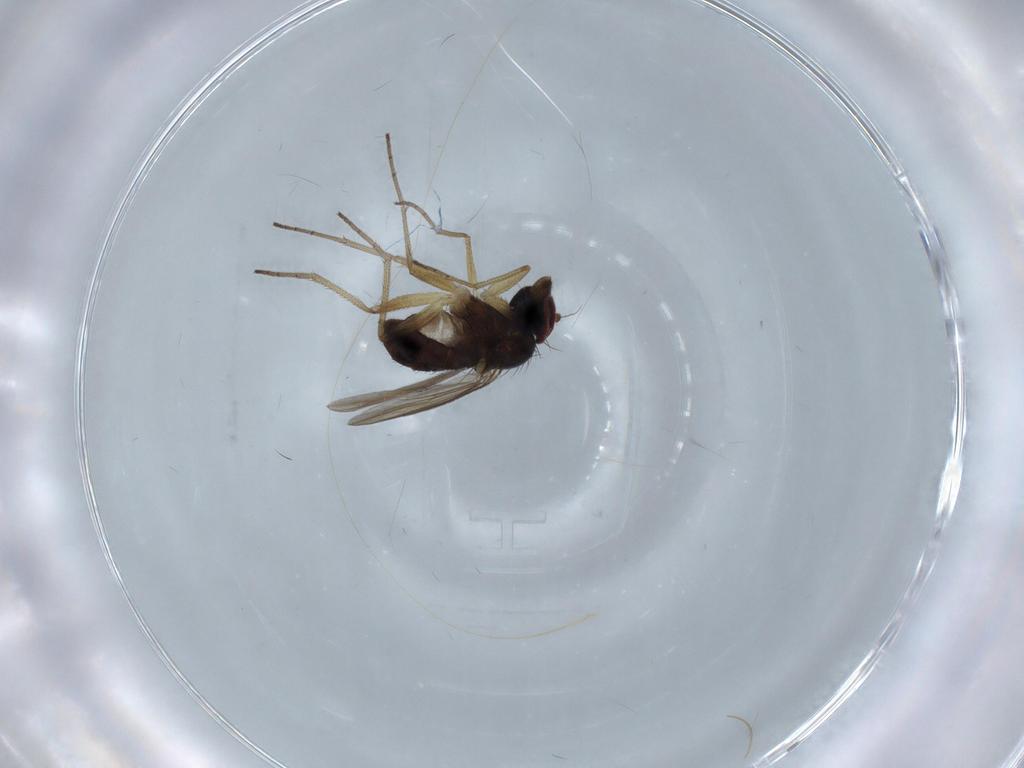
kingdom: Animalia
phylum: Arthropoda
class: Insecta
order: Diptera
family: Dolichopodidae
